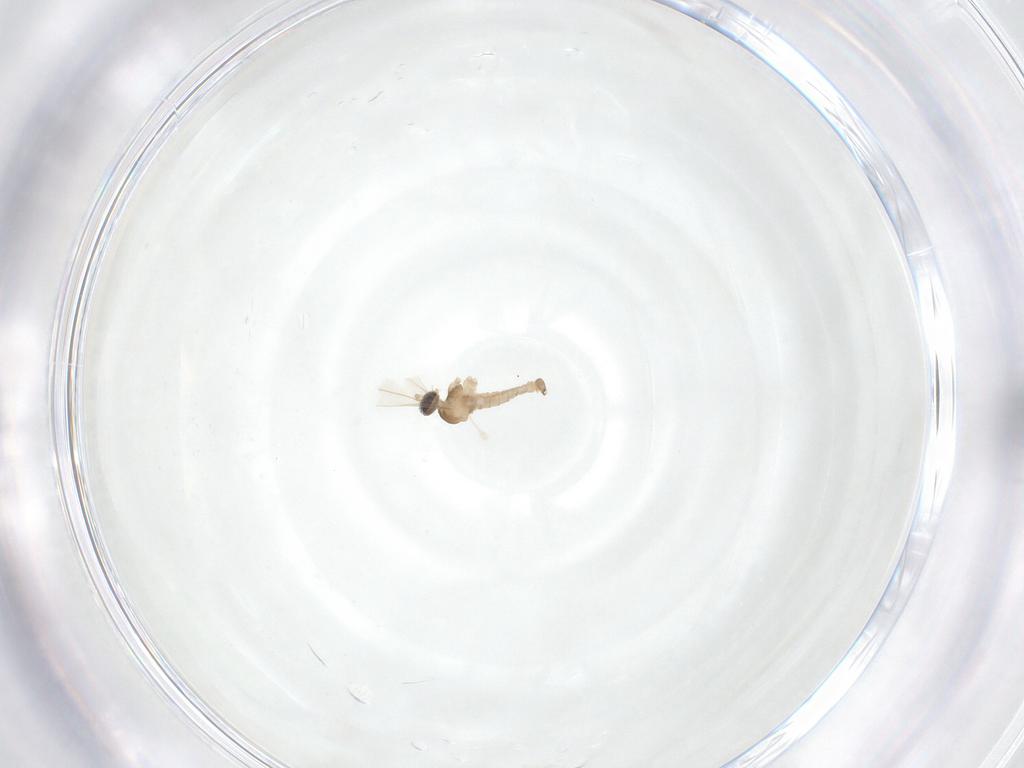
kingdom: Animalia
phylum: Arthropoda
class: Insecta
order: Diptera
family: Cecidomyiidae
